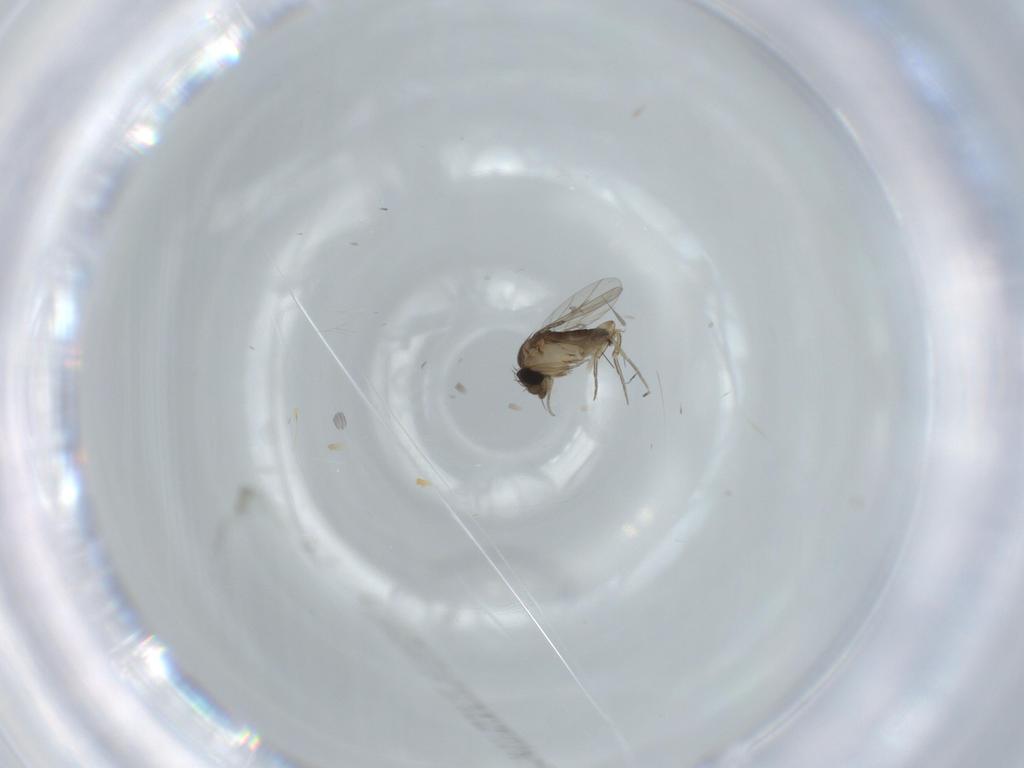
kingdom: Animalia
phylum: Arthropoda
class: Insecta
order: Diptera
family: Phoridae
